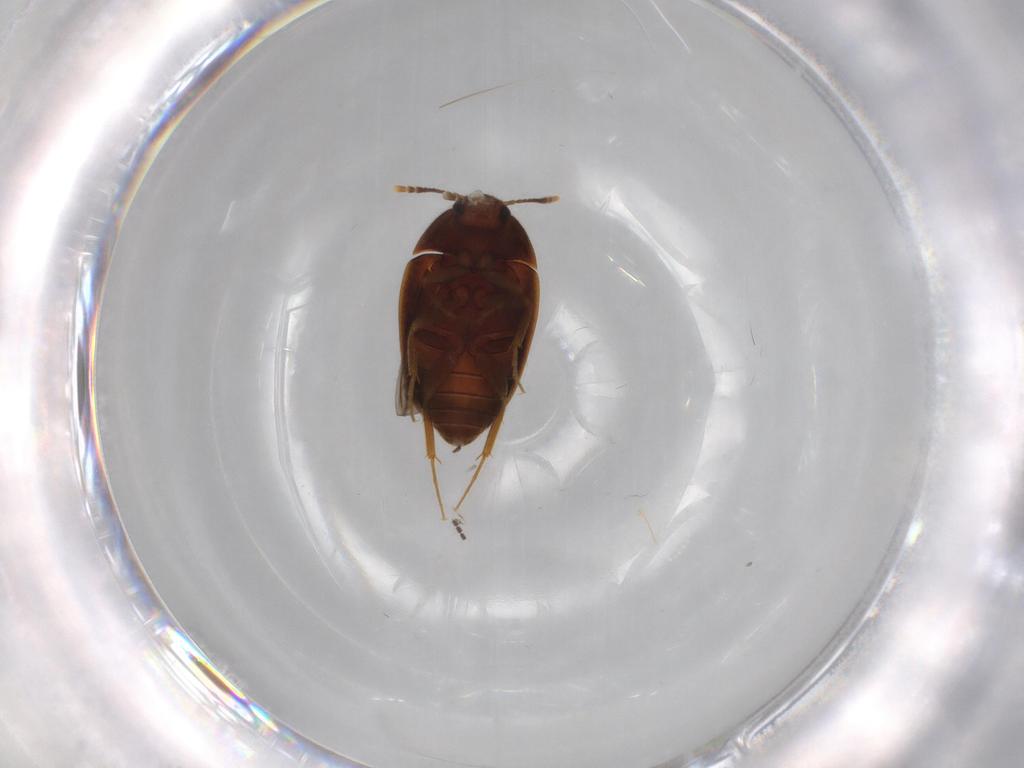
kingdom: Animalia
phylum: Arthropoda
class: Insecta
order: Coleoptera
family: Mycetophagidae
